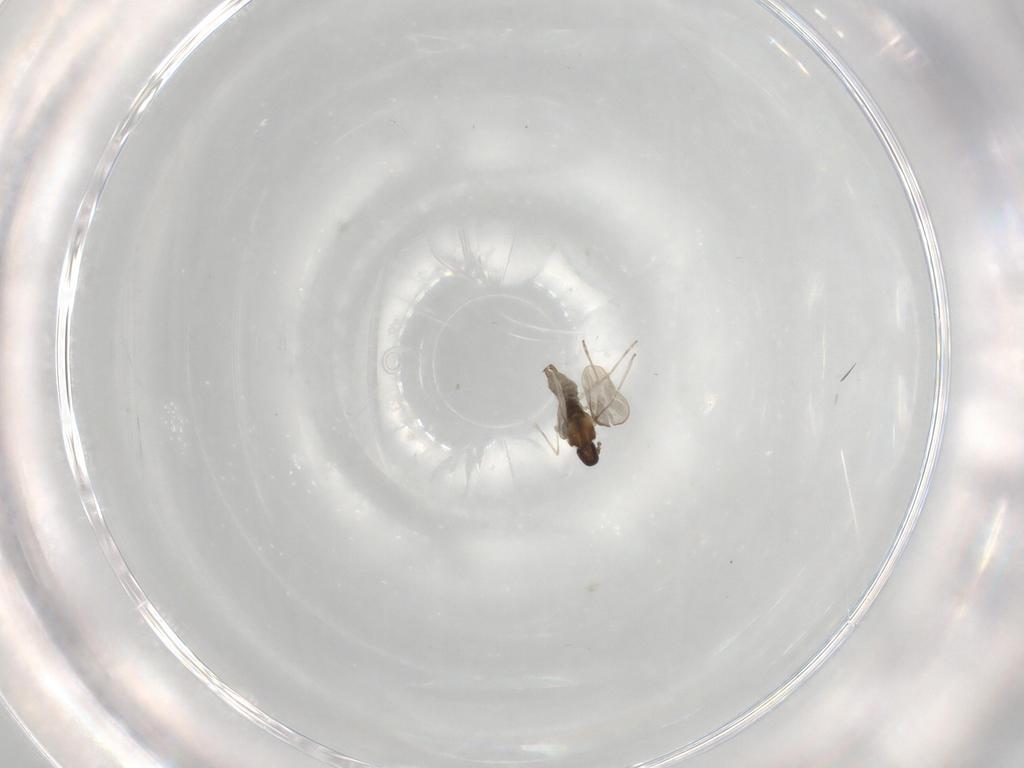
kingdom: Animalia
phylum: Arthropoda
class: Insecta
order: Diptera
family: Cecidomyiidae
